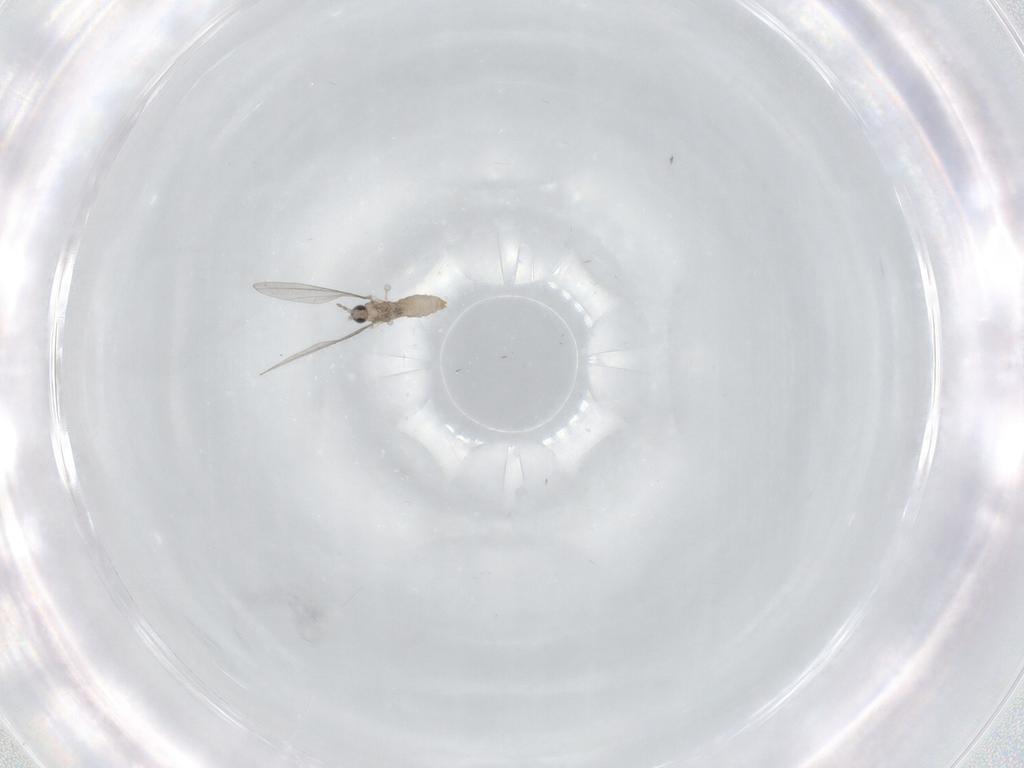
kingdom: Animalia
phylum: Arthropoda
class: Insecta
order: Diptera
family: Cecidomyiidae
